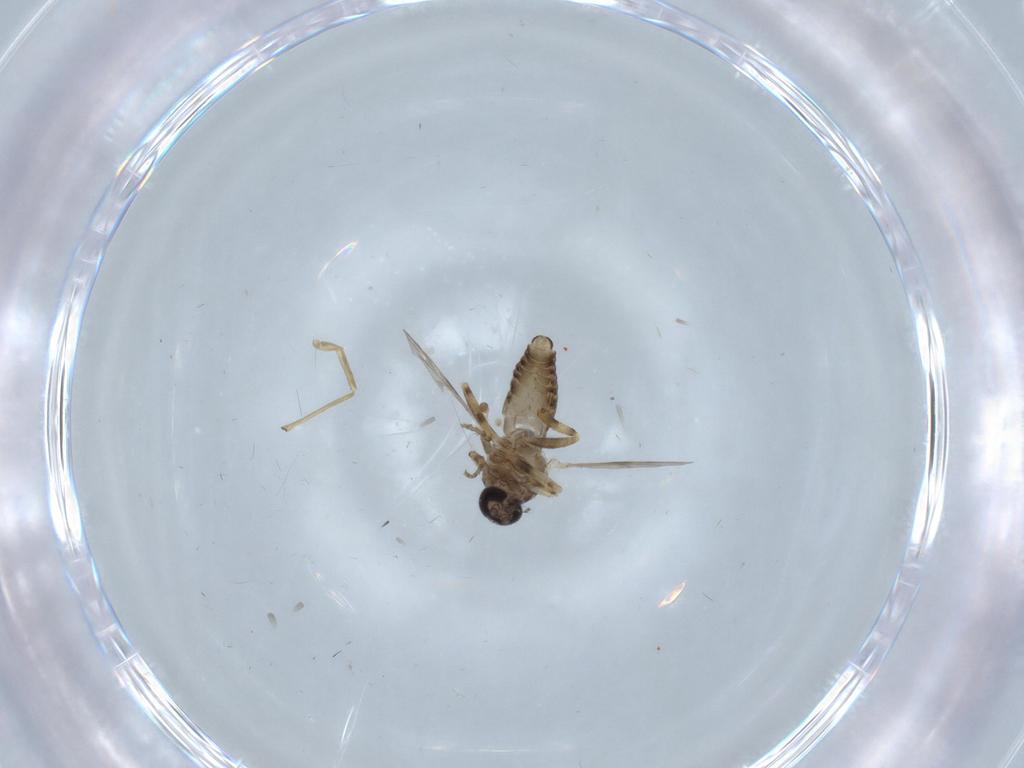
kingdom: Animalia
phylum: Arthropoda
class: Insecta
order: Diptera
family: Ceratopogonidae
